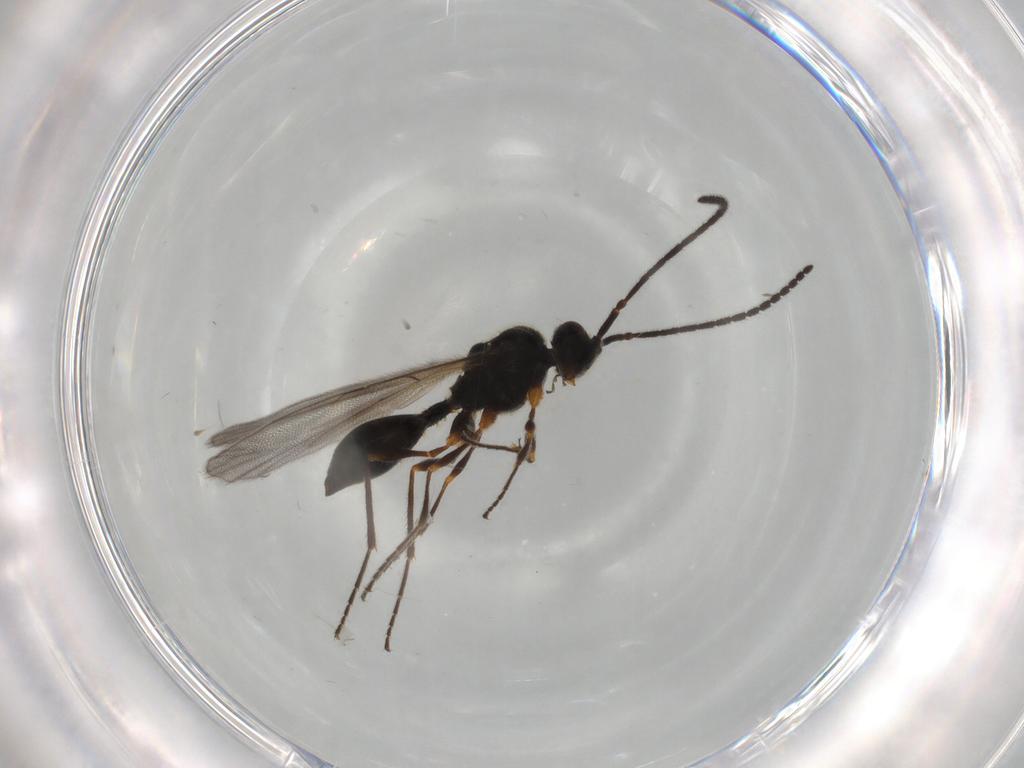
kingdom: Animalia
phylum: Arthropoda
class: Insecta
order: Hymenoptera
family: Diapriidae
